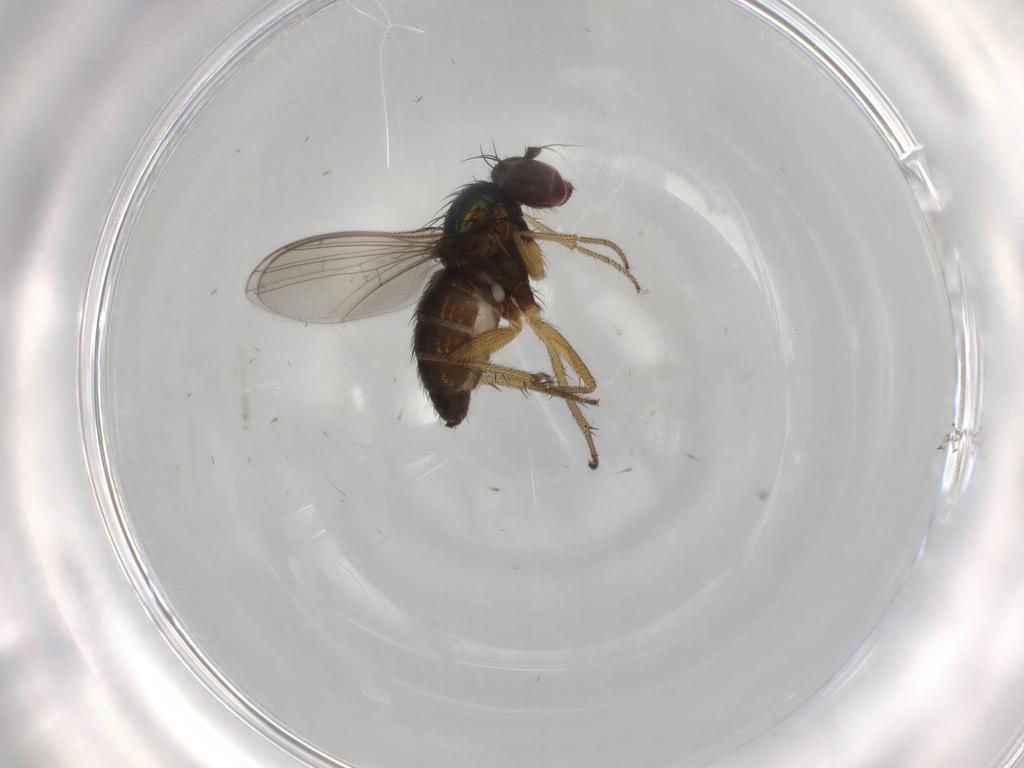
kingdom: Animalia
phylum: Arthropoda
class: Insecta
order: Diptera
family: Chironomidae
